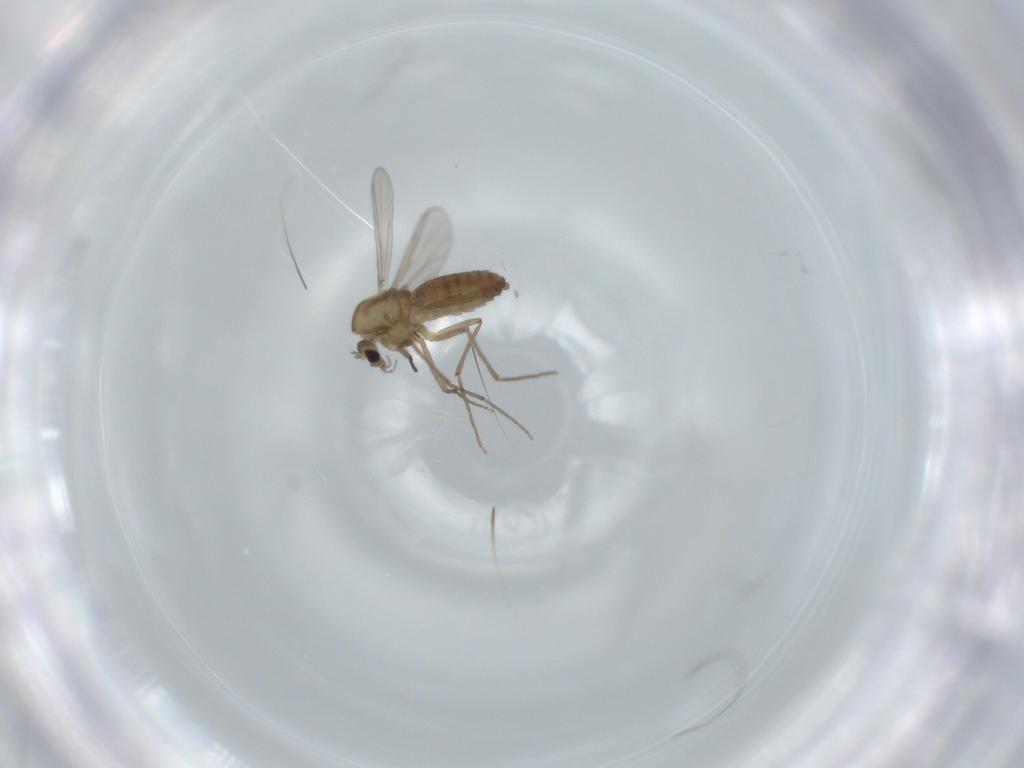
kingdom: Animalia
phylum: Arthropoda
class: Insecta
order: Diptera
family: Chironomidae
